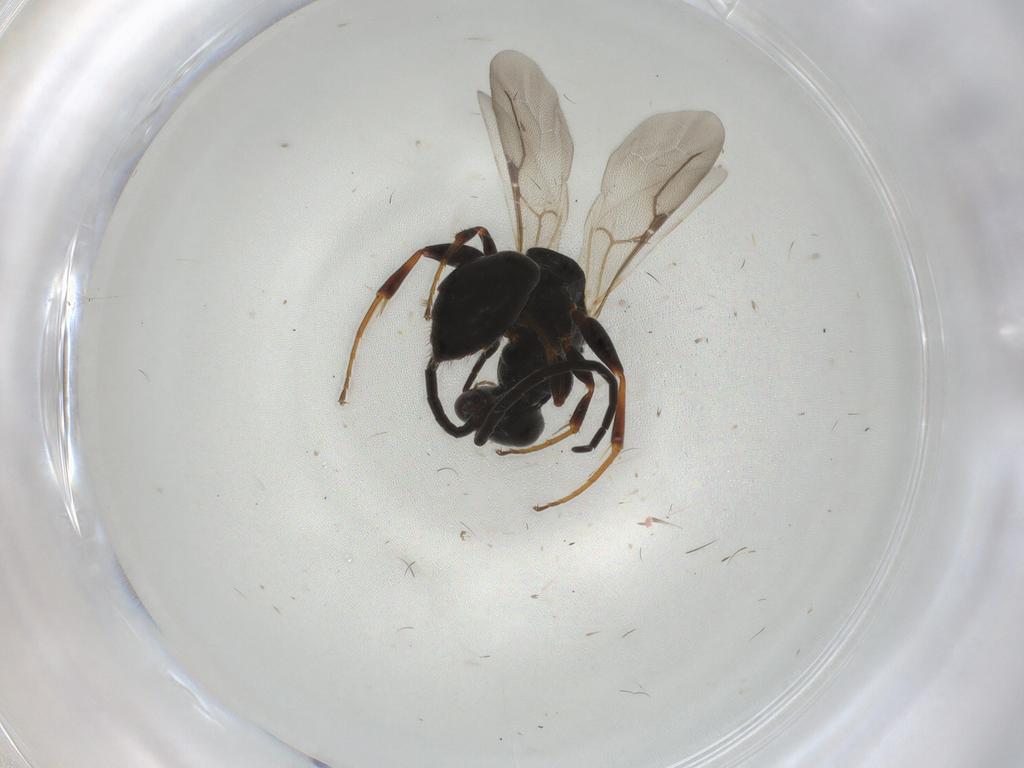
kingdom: Animalia
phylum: Arthropoda
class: Insecta
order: Hymenoptera
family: Bethylidae
